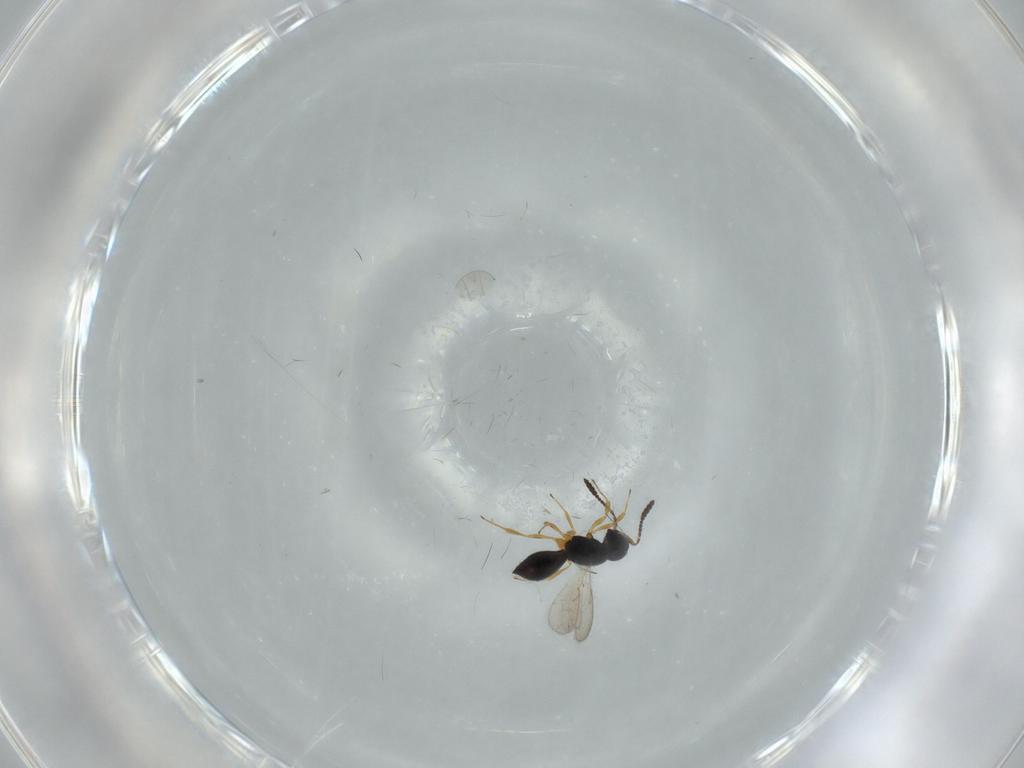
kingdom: Animalia
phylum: Arthropoda
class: Insecta
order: Hymenoptera
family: Scelionidae
